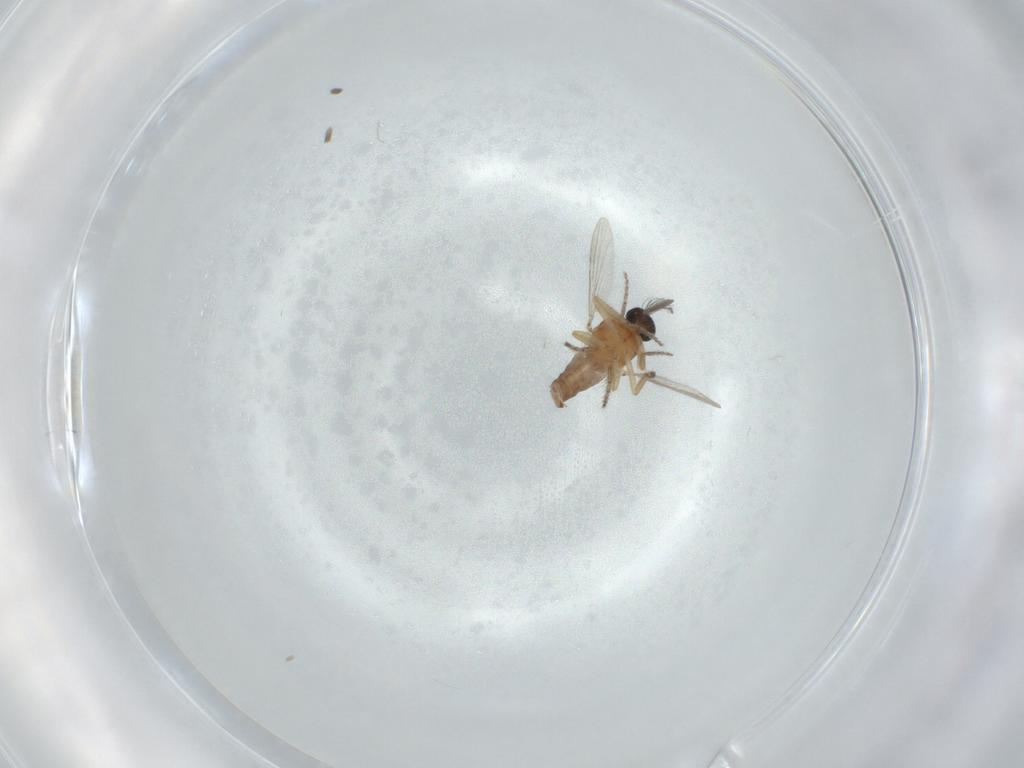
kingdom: Animalia
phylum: Arthropoda
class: Insecta
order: Diptera
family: Ceratopogonidae
